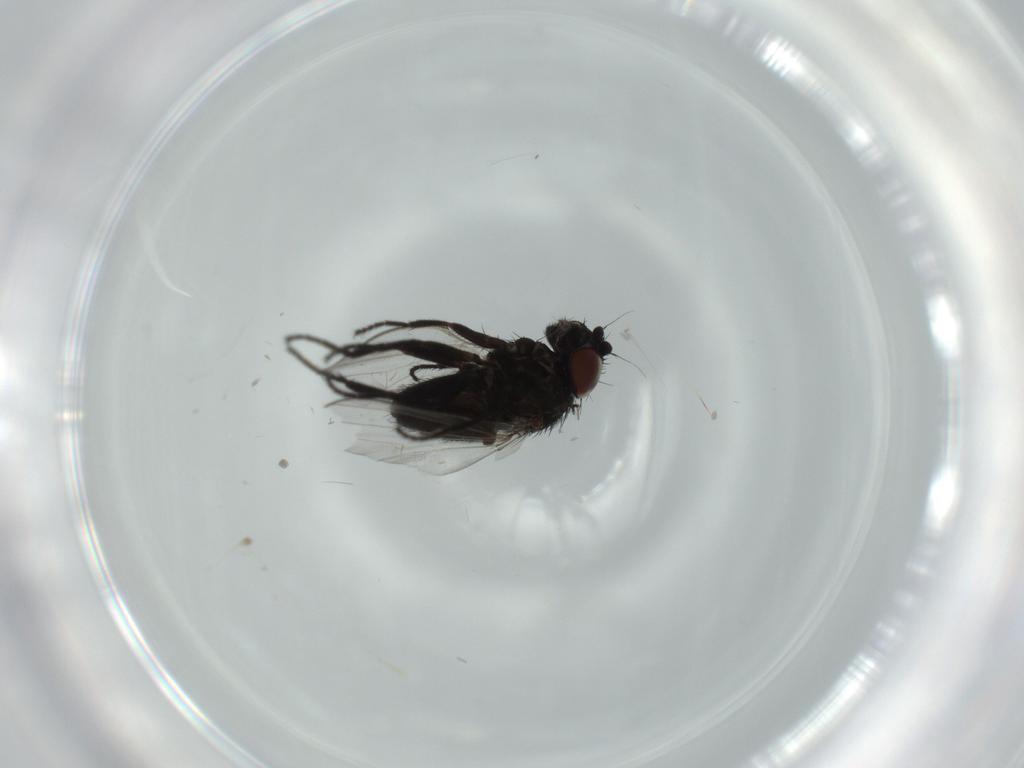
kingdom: Animalia
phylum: Arthropoda
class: Insecta
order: Diptera
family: Milichiidae
